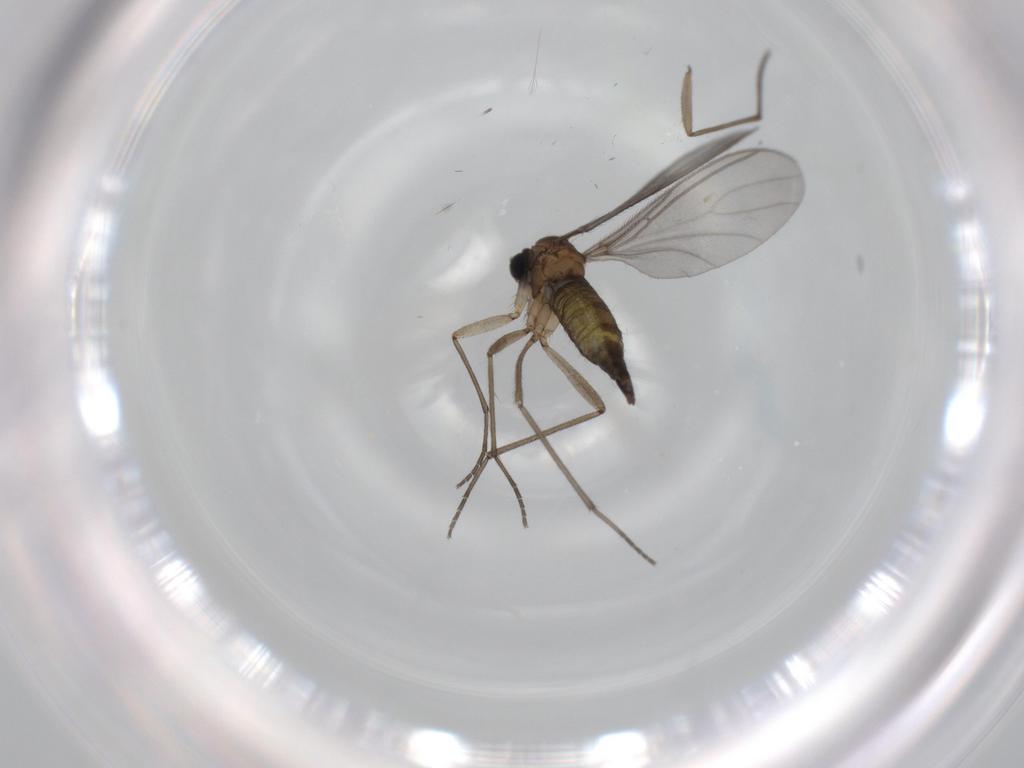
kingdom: Animalia
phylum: Arthropoda
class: Insecta
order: Diptera
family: Sciaridae
